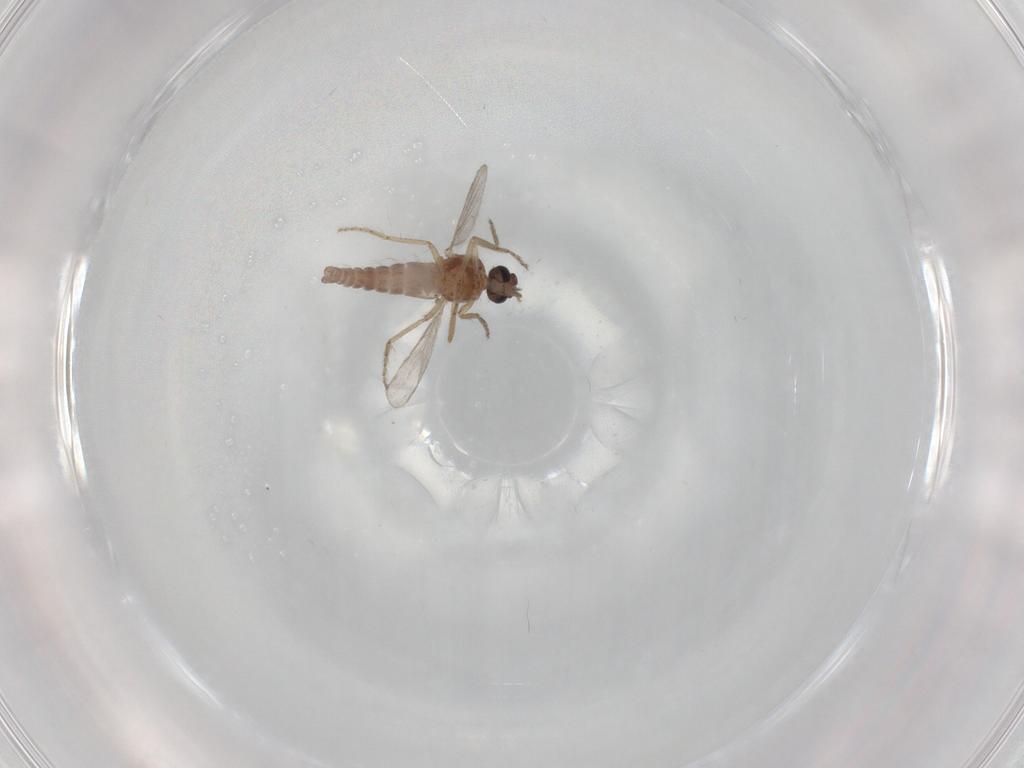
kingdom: Animalia
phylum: Arthropoda
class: Insecta
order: Diptera
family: Ceratopogonidae
